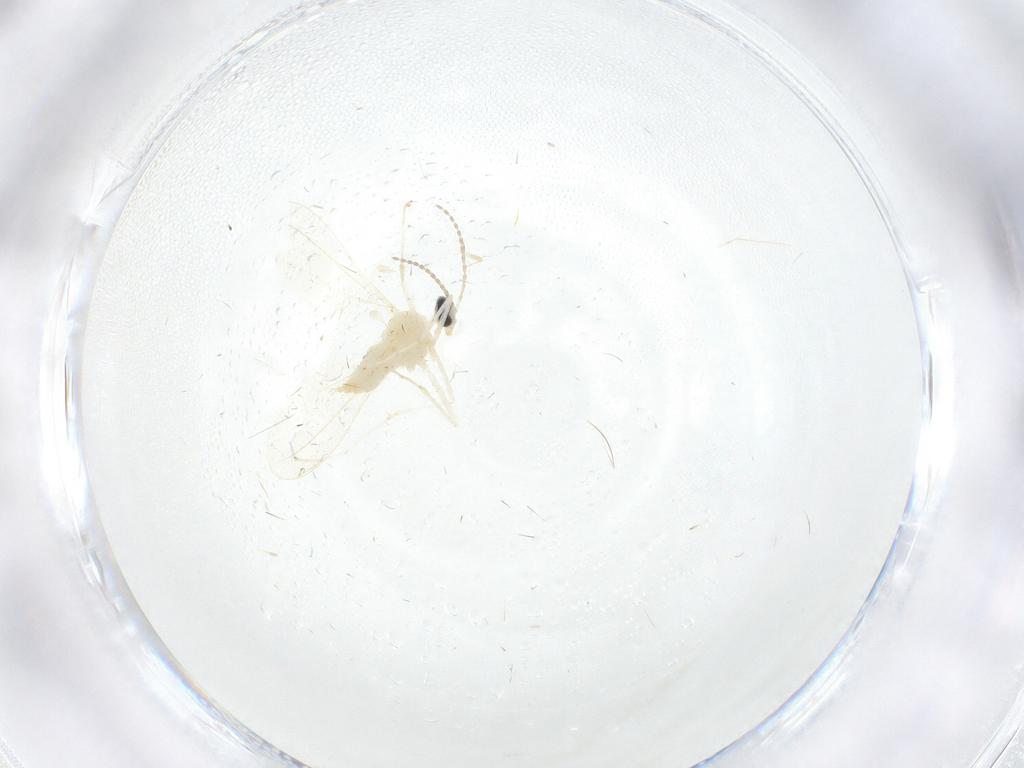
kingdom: Animalia
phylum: Arthropoda
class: Insecta
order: Diptera
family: Cecidomyiidae
